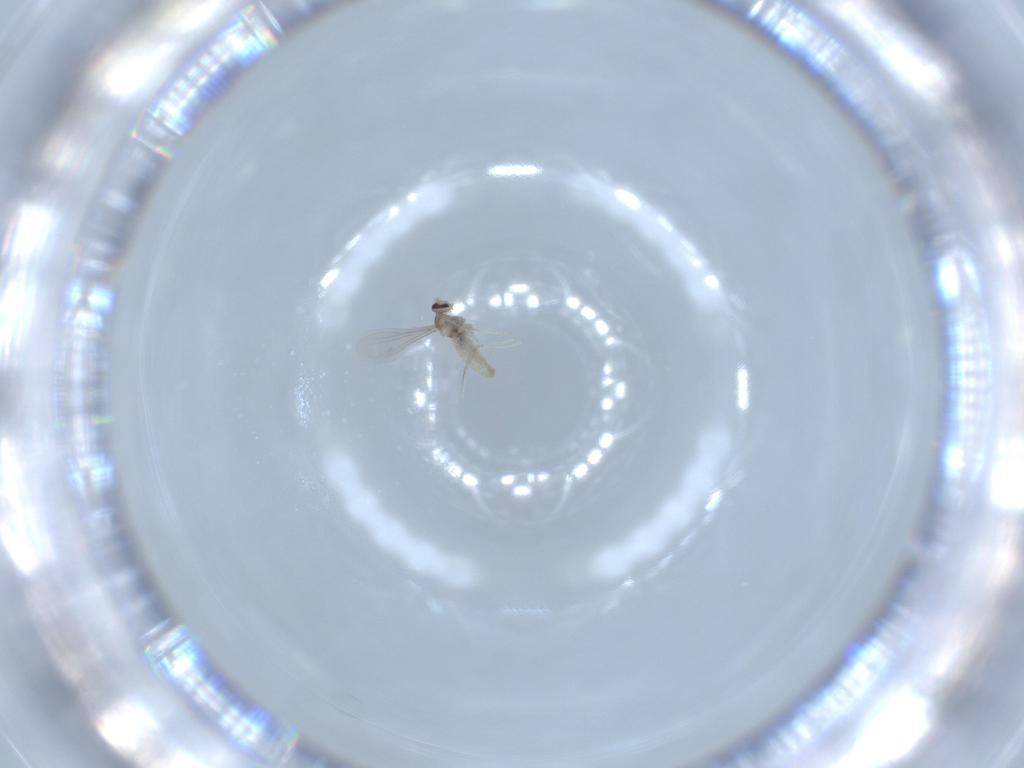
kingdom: Animalia
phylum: Arthropoda
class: Insecta
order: Diptera
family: Cecidomyiidae
